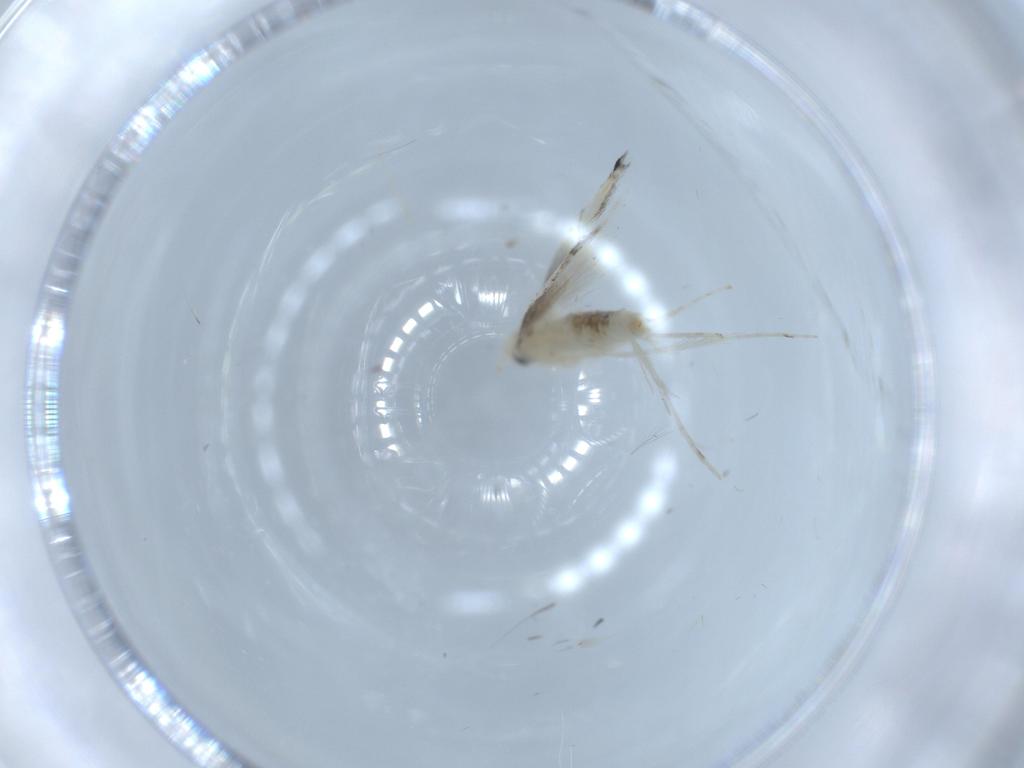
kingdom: Animalia
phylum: Arthropoda
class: Insecta
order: Lepidoptera
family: Gracillariidae
